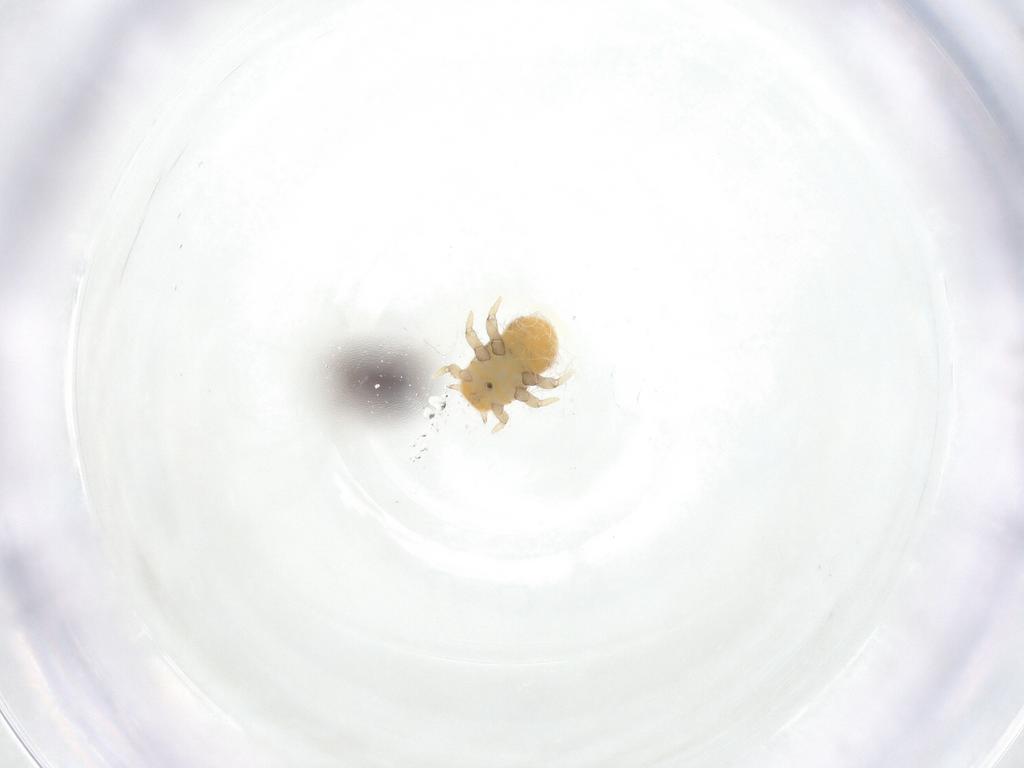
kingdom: Animalia
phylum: Arthropoda
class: Insecta
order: Hemiptera
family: Triozidae
